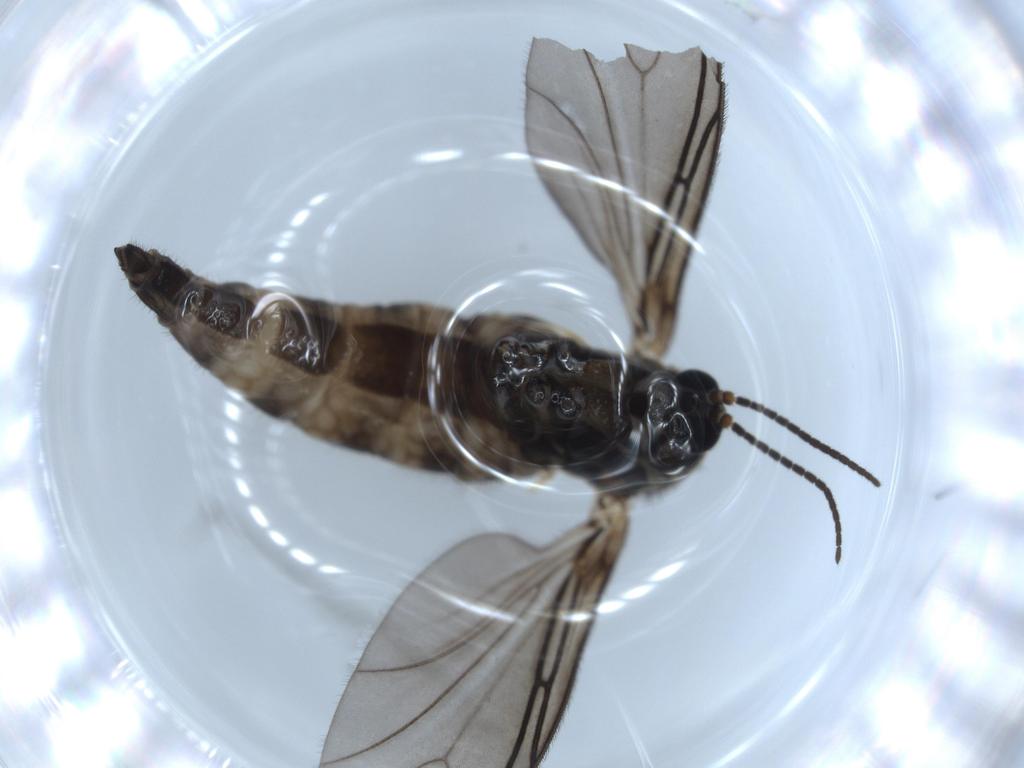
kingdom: Animalia
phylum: Arthropoda
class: Insecta
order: Diptera
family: Sciaridae
